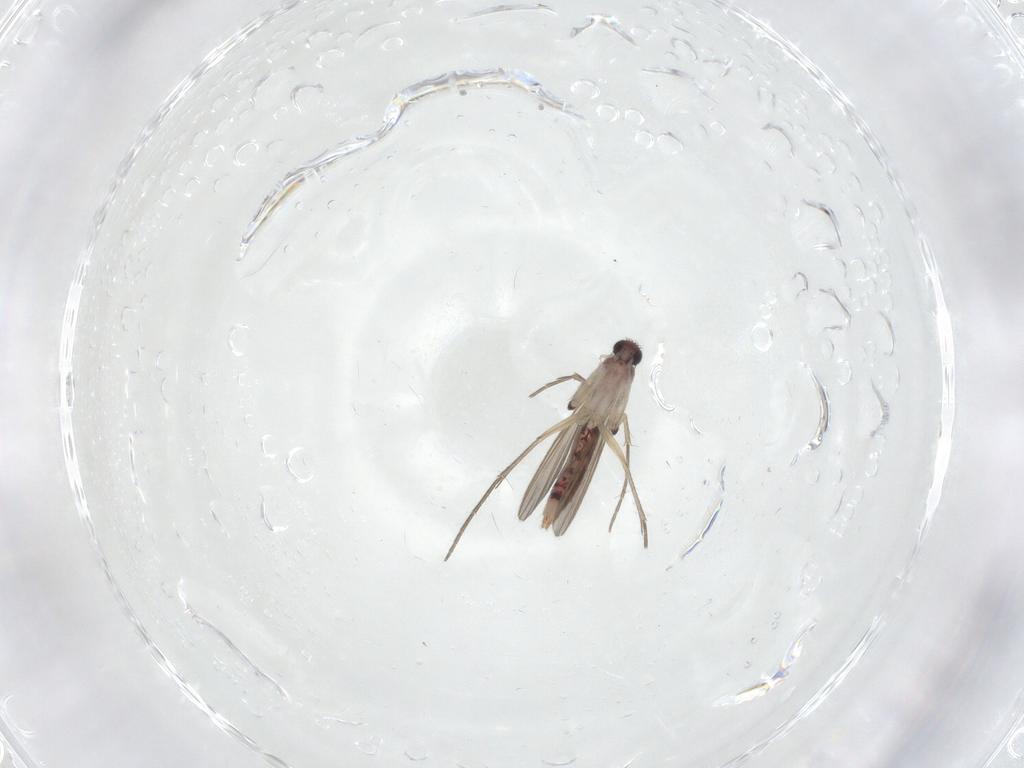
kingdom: Animalia
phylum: Arthropoda
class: Insecta
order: Diptera
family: Mycetophilidae
